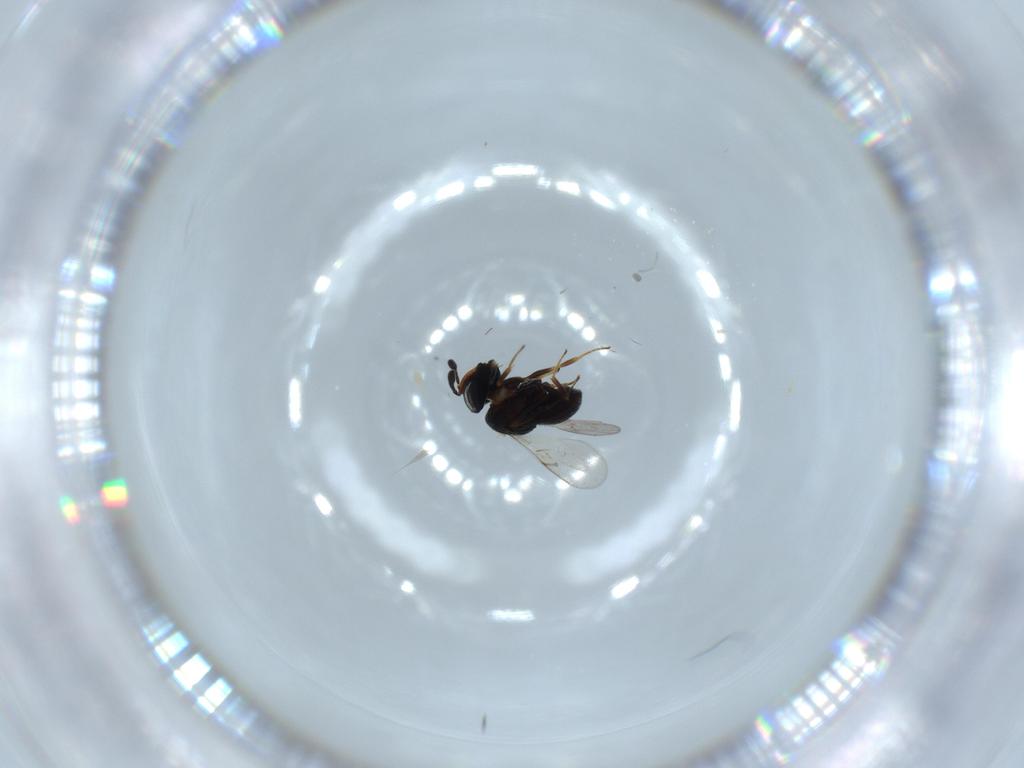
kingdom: Animalia
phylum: Arthropoda
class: Insecta
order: Hymenoptera
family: Scelionidae
